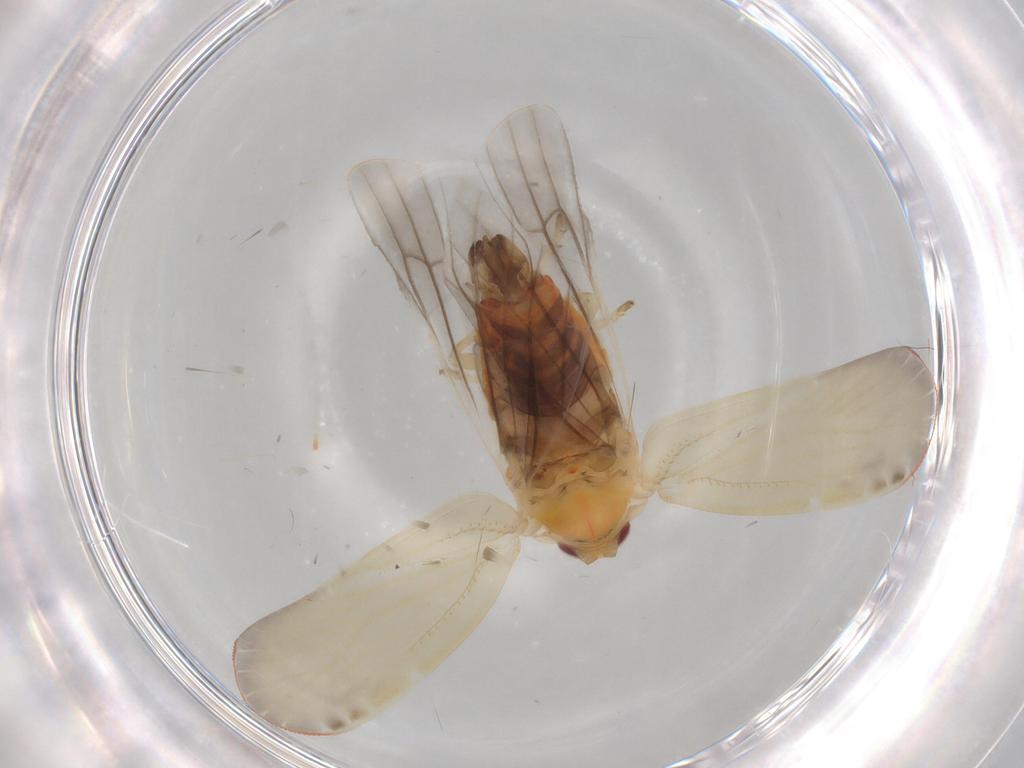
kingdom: Animalia
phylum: Arthropoda
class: Insecta
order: Hemiptera
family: Derbidae
